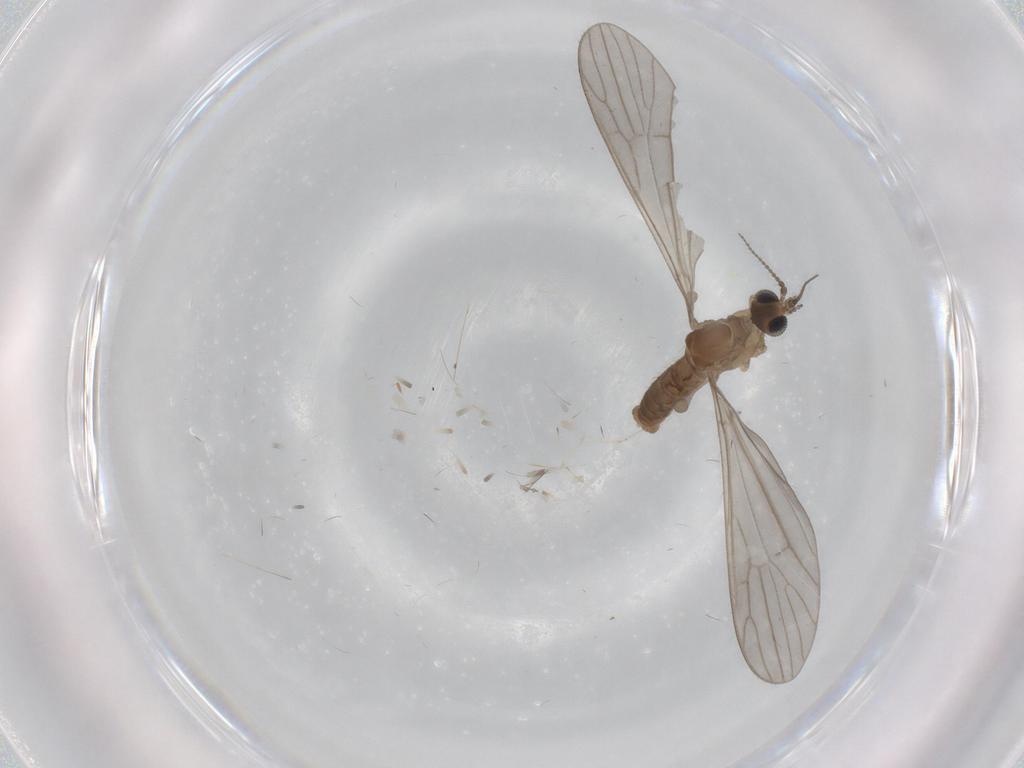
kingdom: Animalia
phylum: Arthropoda
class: Insecta
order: Diptera
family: Limoniidae
